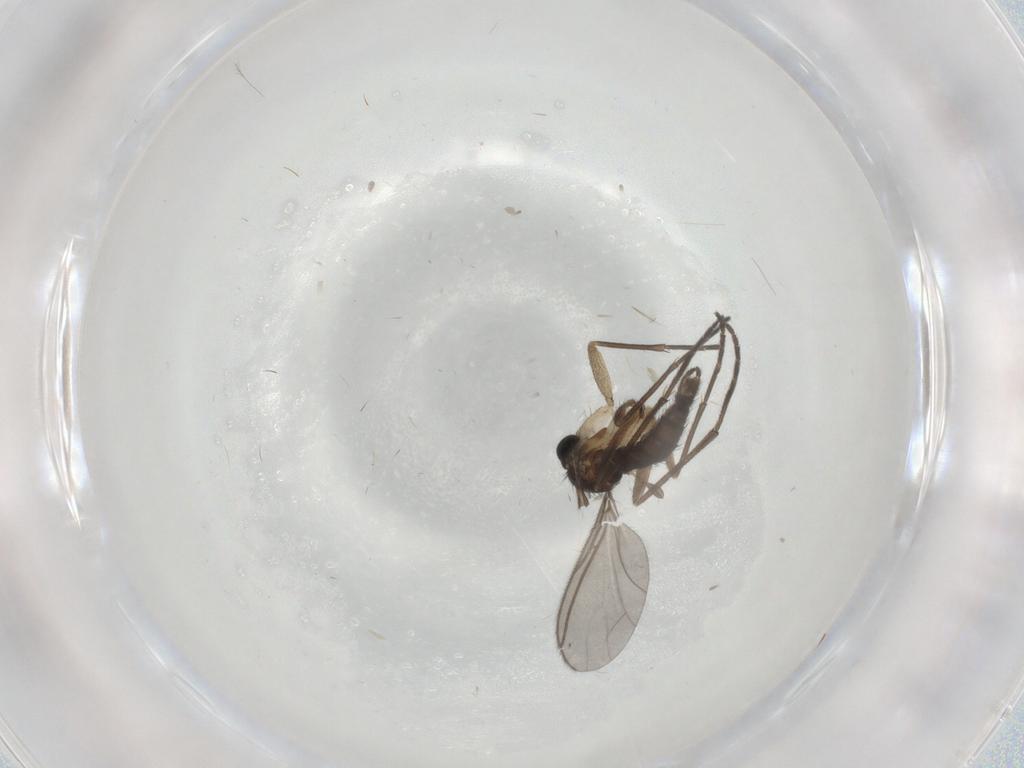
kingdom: Animalia
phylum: Arthropoda
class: Insecta
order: Diptera
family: Sciaridae
